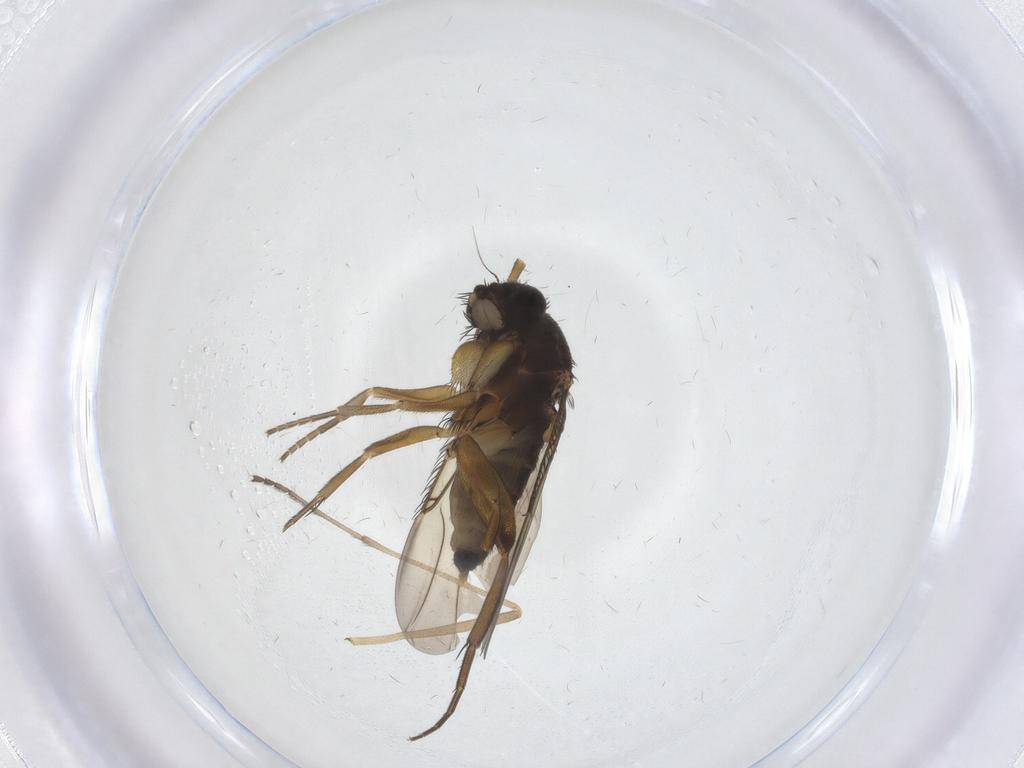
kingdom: Animalia
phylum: Arthropoda
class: Insecta
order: Diptera
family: Phoridae
